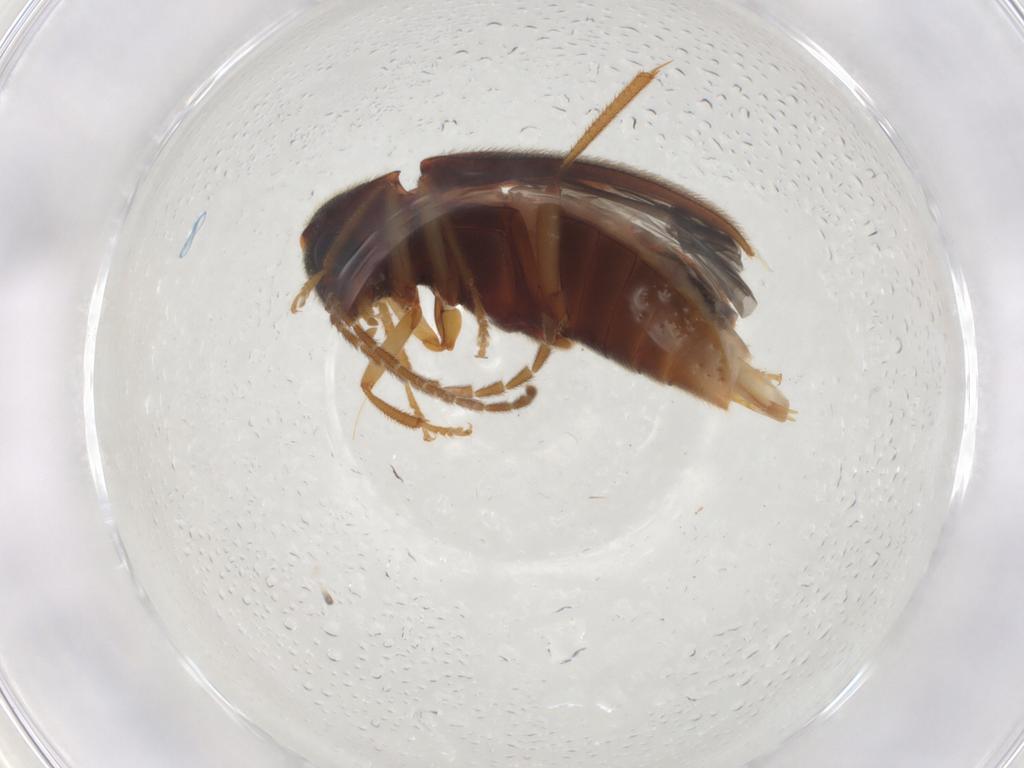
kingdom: Animalia
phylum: Arthropoda
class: Insecta
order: Coleoptera
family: Ptilodactylidae
